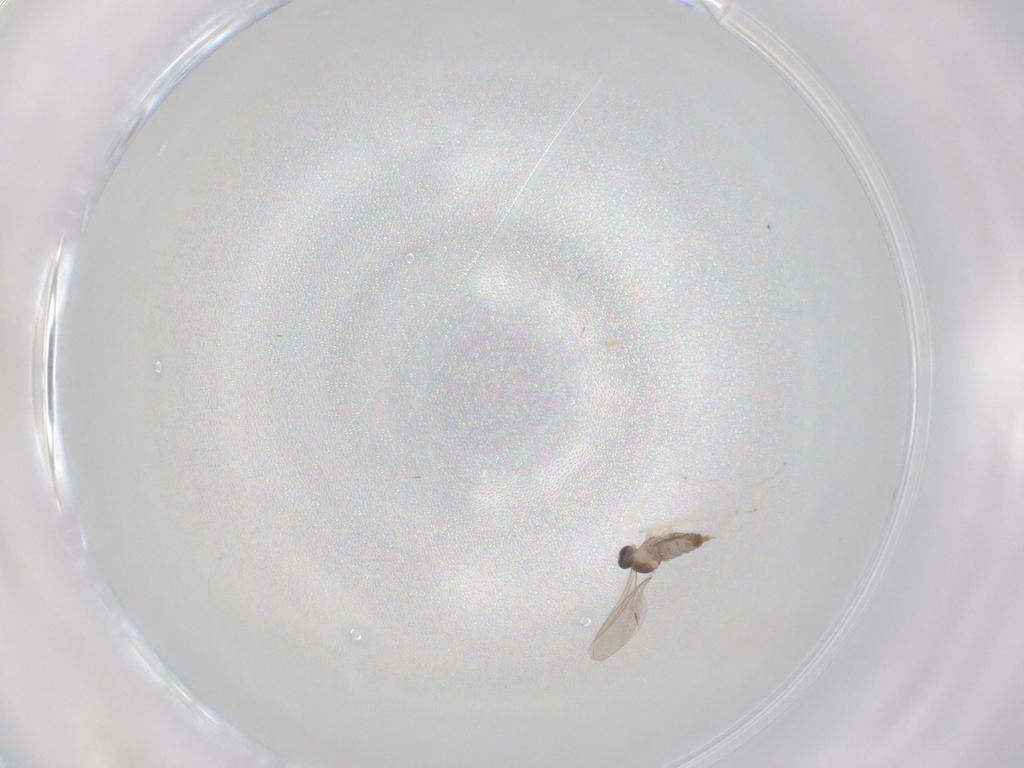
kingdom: Animalia
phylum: Arthropoda
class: Insecta
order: Diptera
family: Cecidomyiidae
